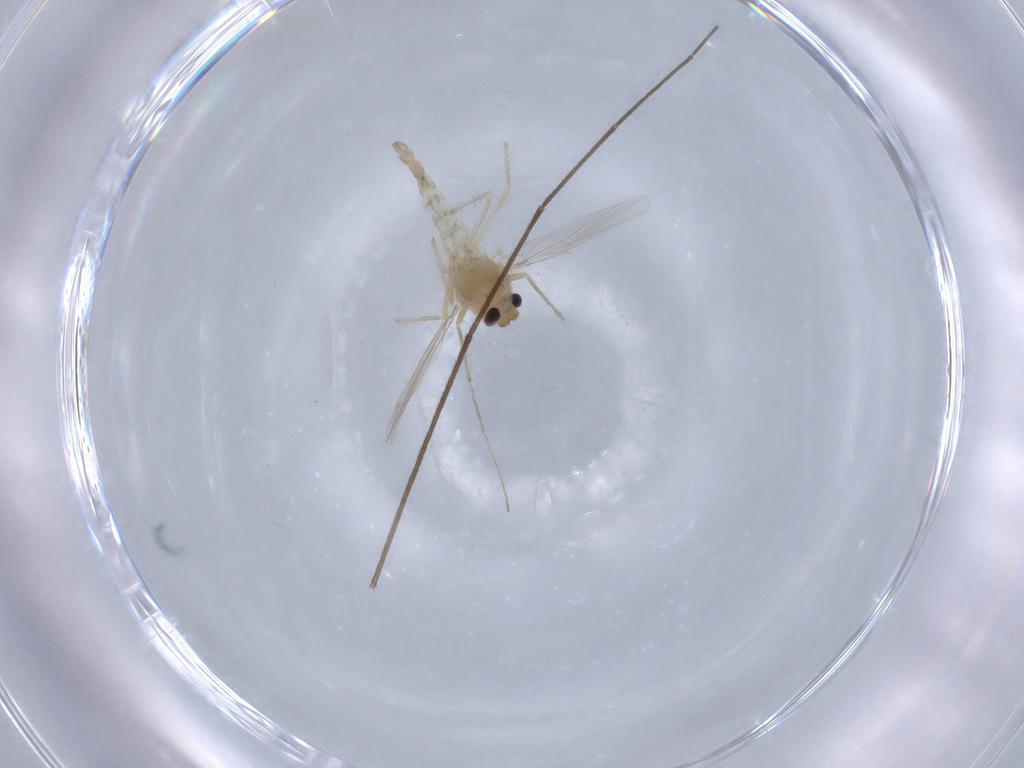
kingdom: Animalia
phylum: Arthropoda
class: Insecta
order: Diptera
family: Chironomidae
